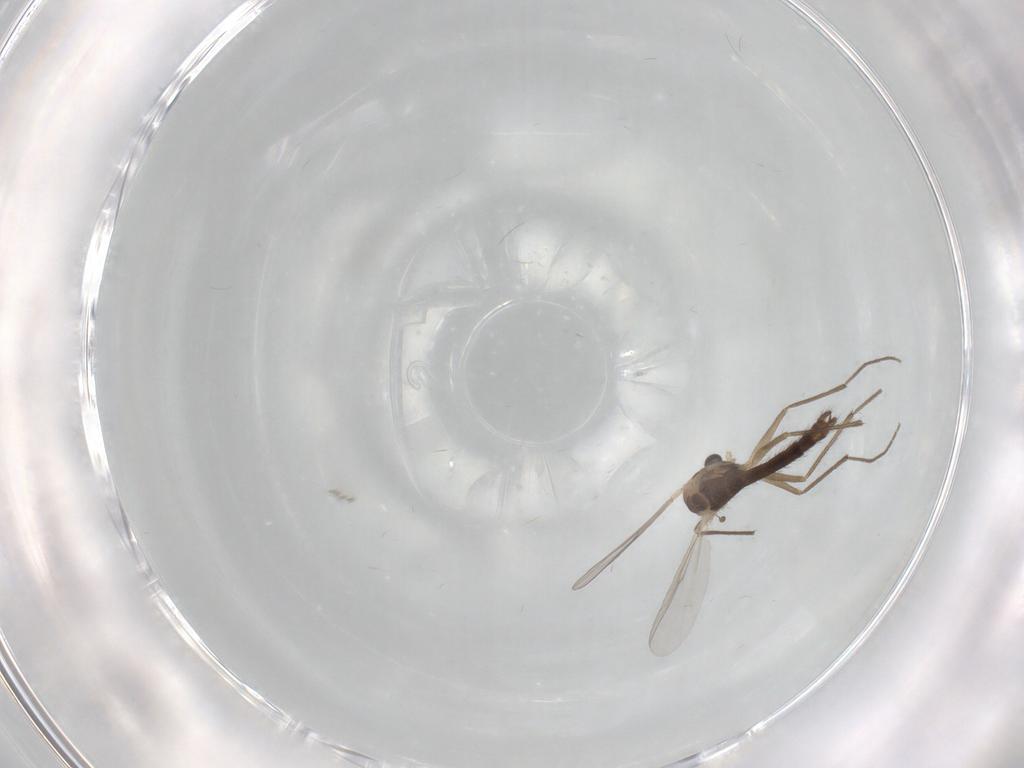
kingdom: Animalia
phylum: Arthropoda
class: Insecta
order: Diptera
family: Chironomidae
